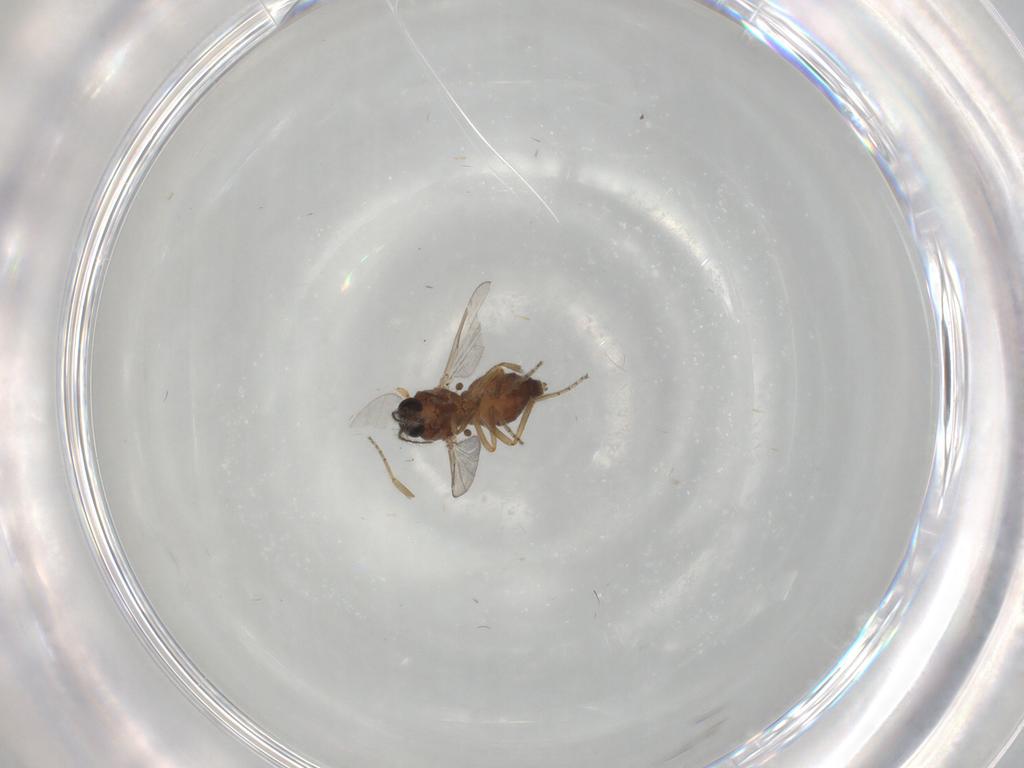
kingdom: Animalia
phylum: Arthropoda
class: Insecta
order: Diptera
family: Ceratopogonidae
